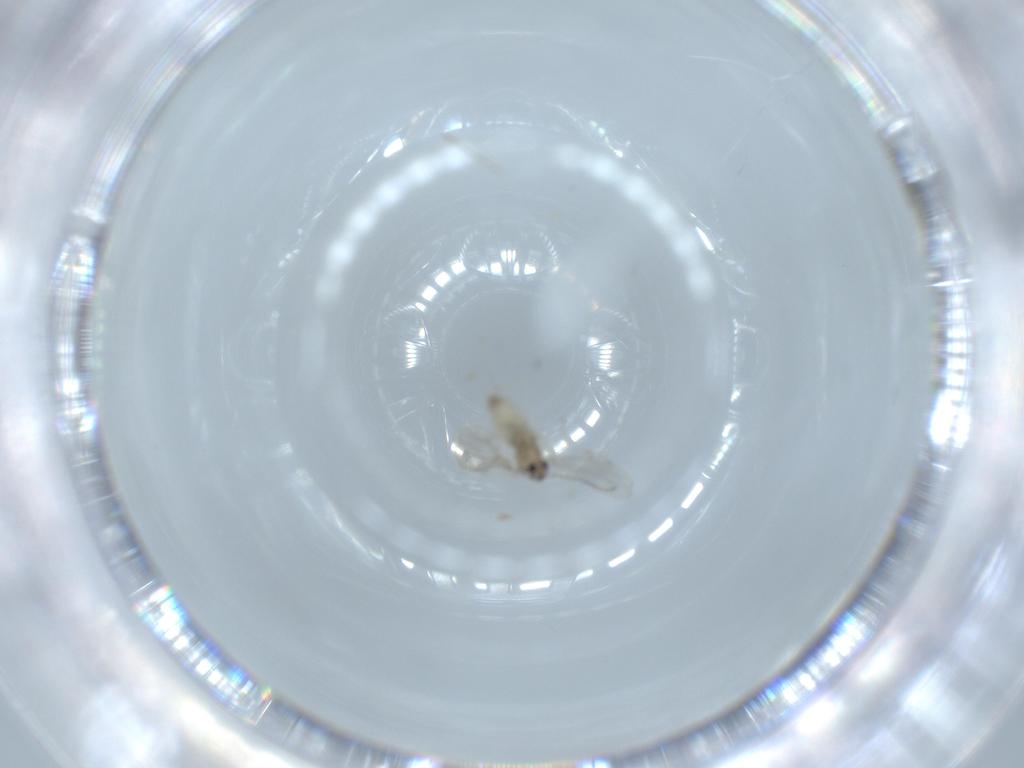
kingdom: Animalia
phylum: Arthropoda
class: Insecta
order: Diptera
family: Cecidomyiidae
